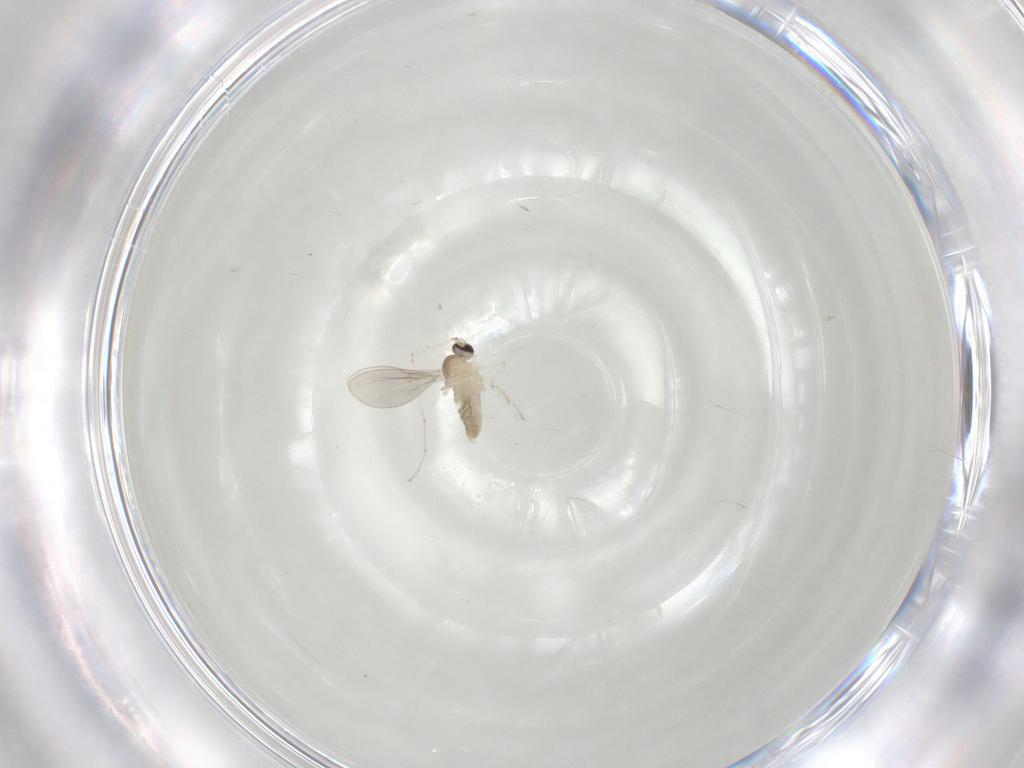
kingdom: Animalia
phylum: Arthropoda
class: Insecta
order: Diptera
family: Cecidomyiidae
